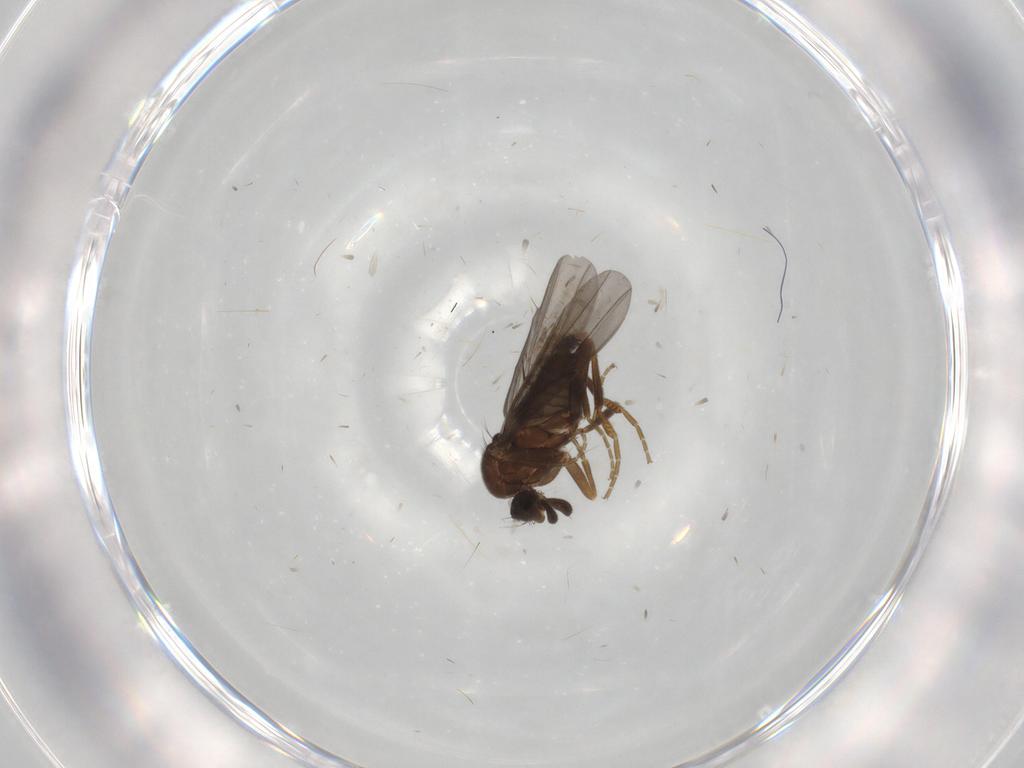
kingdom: Animalia
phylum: Arthropoda
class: Insecta
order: Diptera
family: Phoridae
